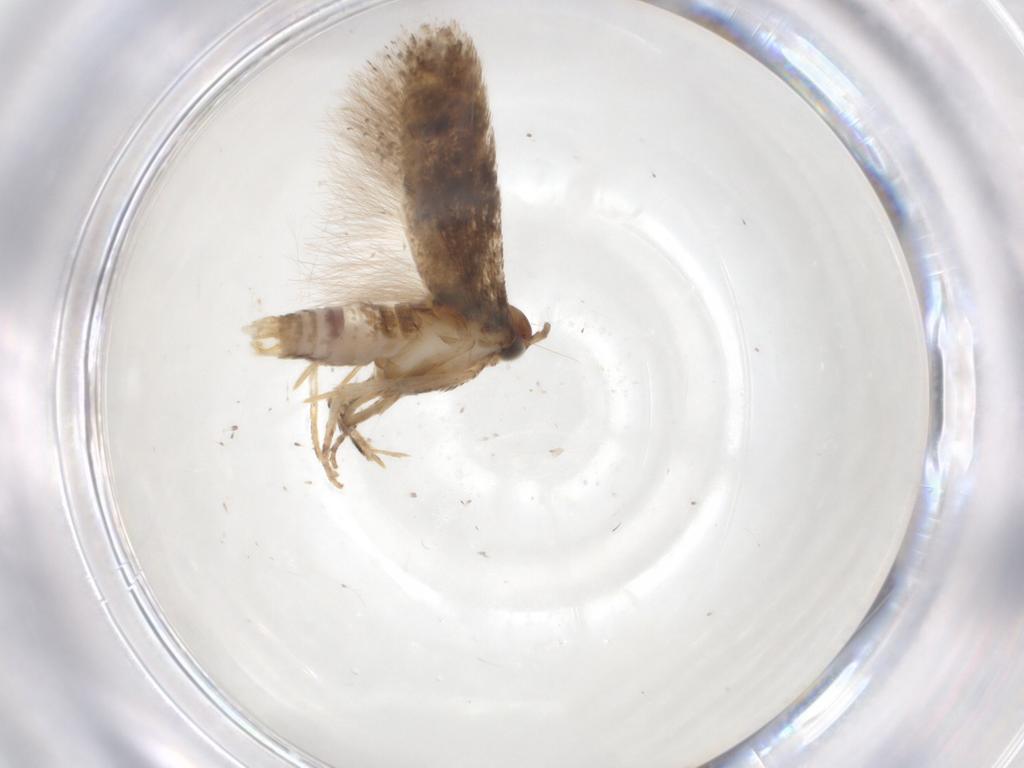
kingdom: Animalia
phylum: Arthropoda
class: Insecta
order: Lepidoptera
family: Gelechiidae
